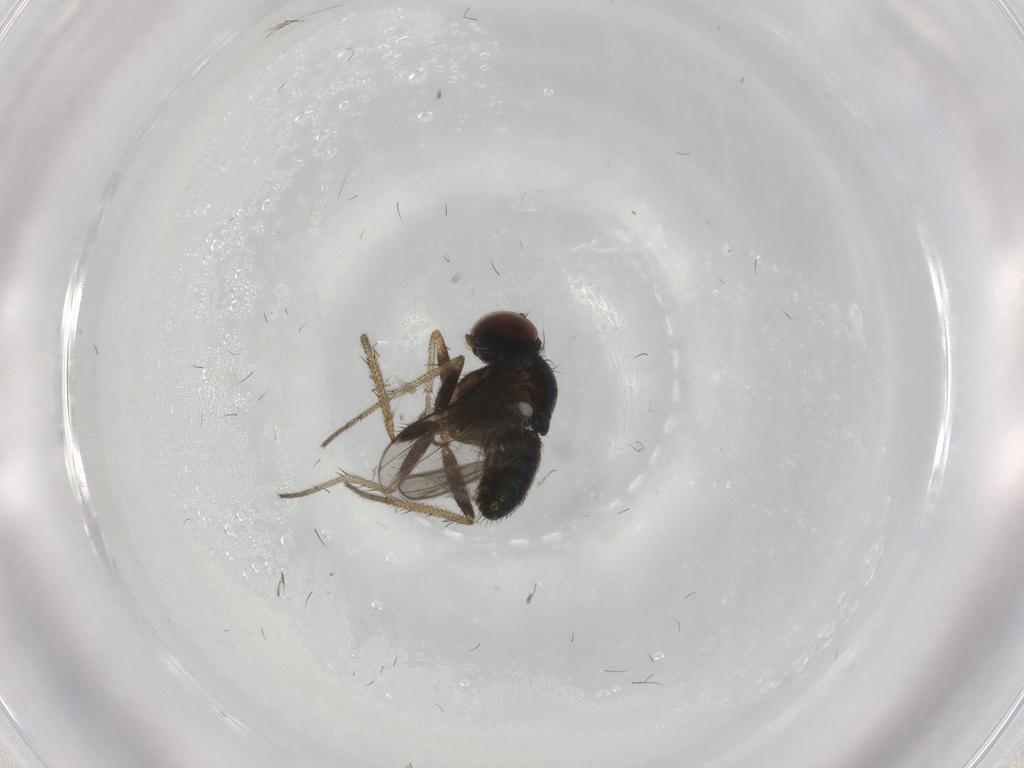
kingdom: Animalia
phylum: Arthropoda
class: Insecta
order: Diptera
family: Dolichopodidae
